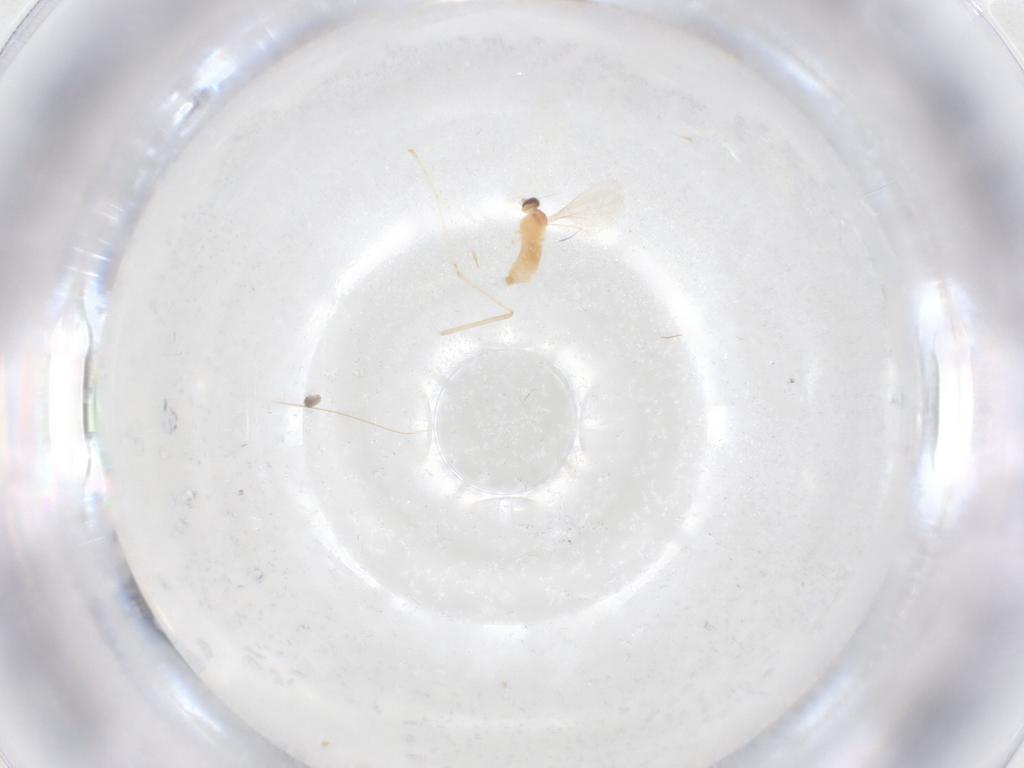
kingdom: Animalia
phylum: Arthropoda
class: Insecta
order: Diptera
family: Cecidomyiidae
